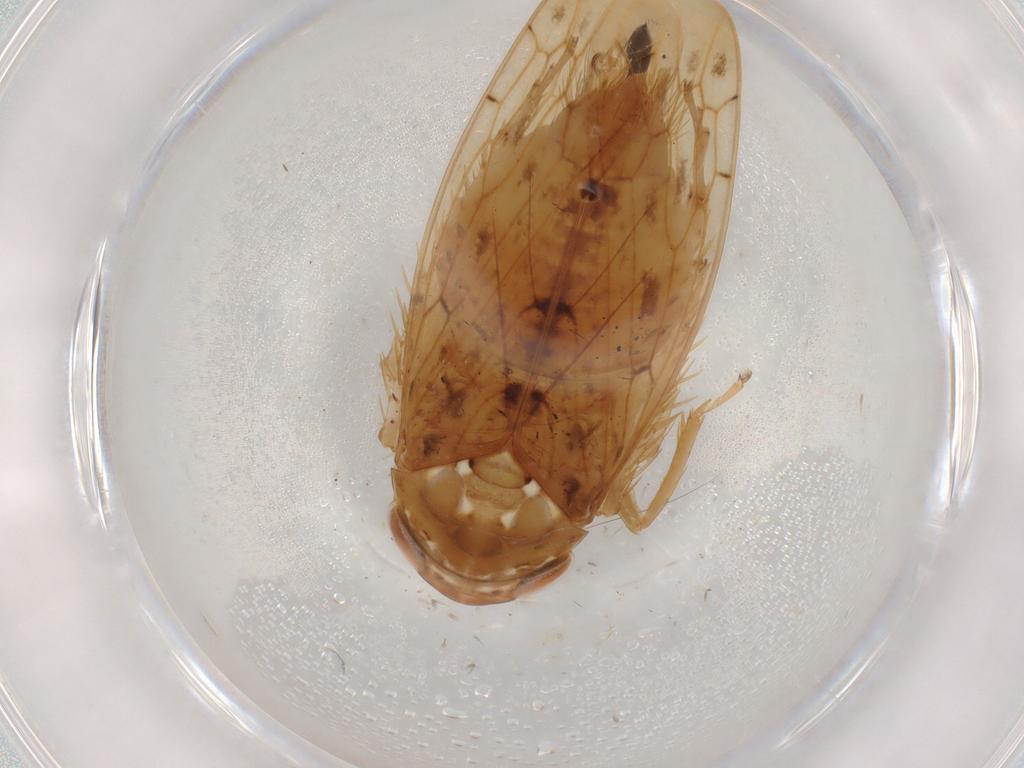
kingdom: Animalia
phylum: Arthropoda
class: Insecta
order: Hemiptera
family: Cicadellidae
